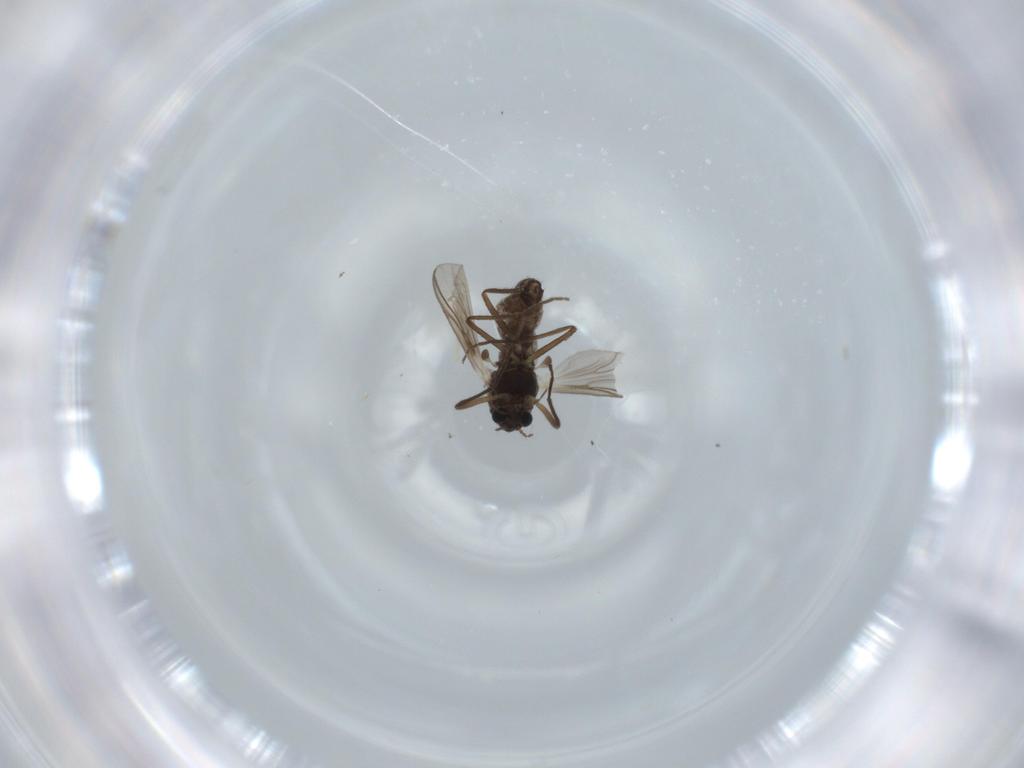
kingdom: Animalia
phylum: Arthropoda
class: Insecta
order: Diptera
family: Chironomidae
